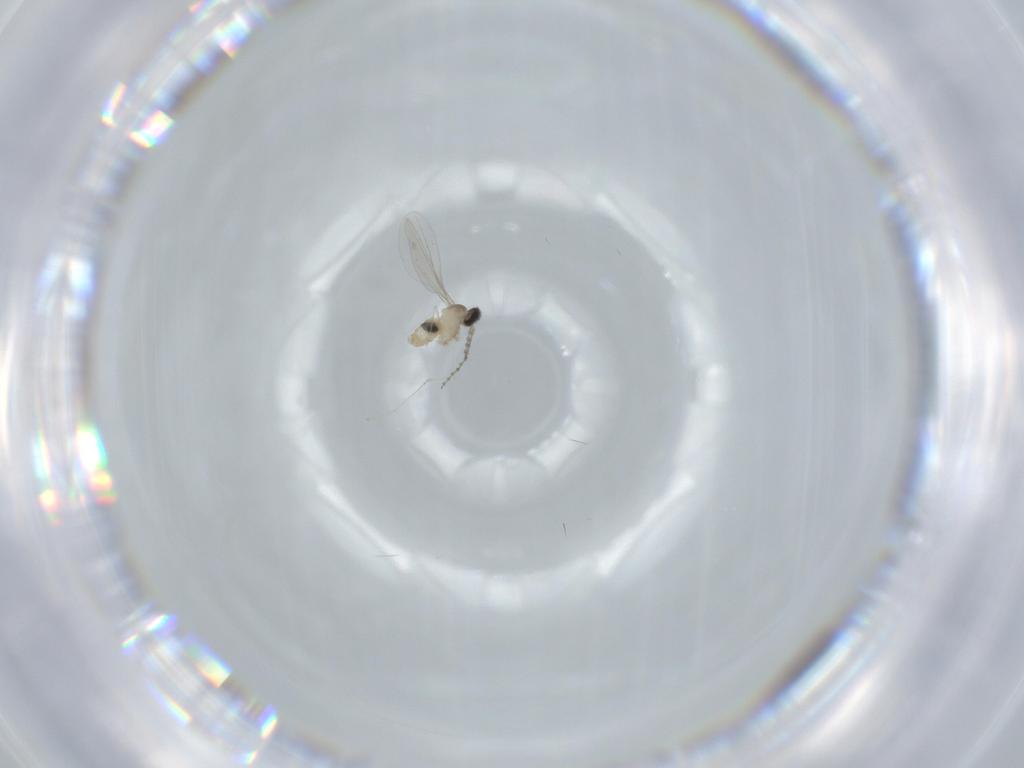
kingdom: Animalia
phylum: Arthropoda
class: Insecta
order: Diptera
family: Cecidomyiidae
